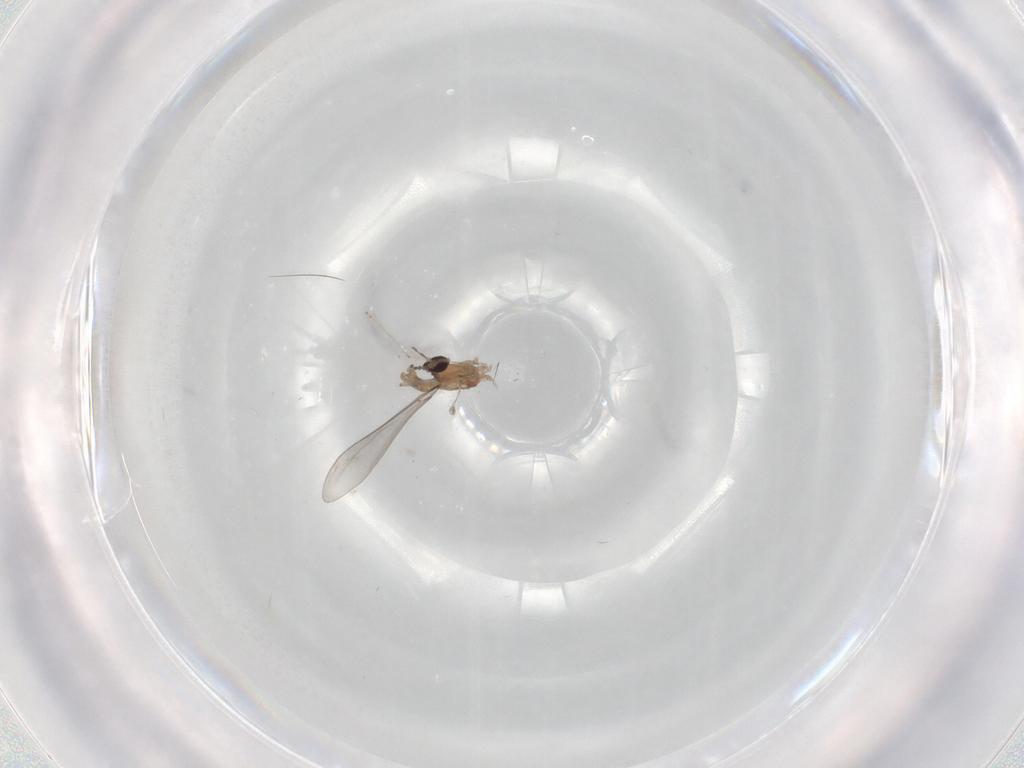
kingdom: Animalia
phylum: Arthropoda
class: Insecta
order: Diptera
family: Cecidomyiidae
